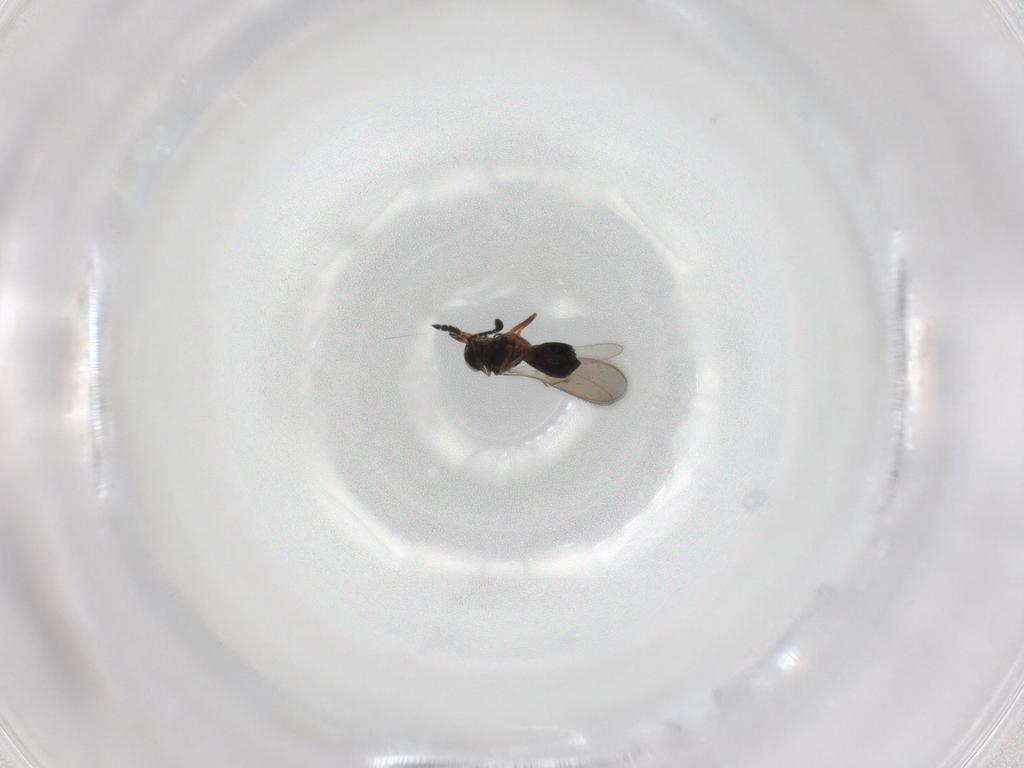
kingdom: Animalia
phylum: Arthropoda
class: Insecta
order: Hymenoptera
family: Scelionidae
